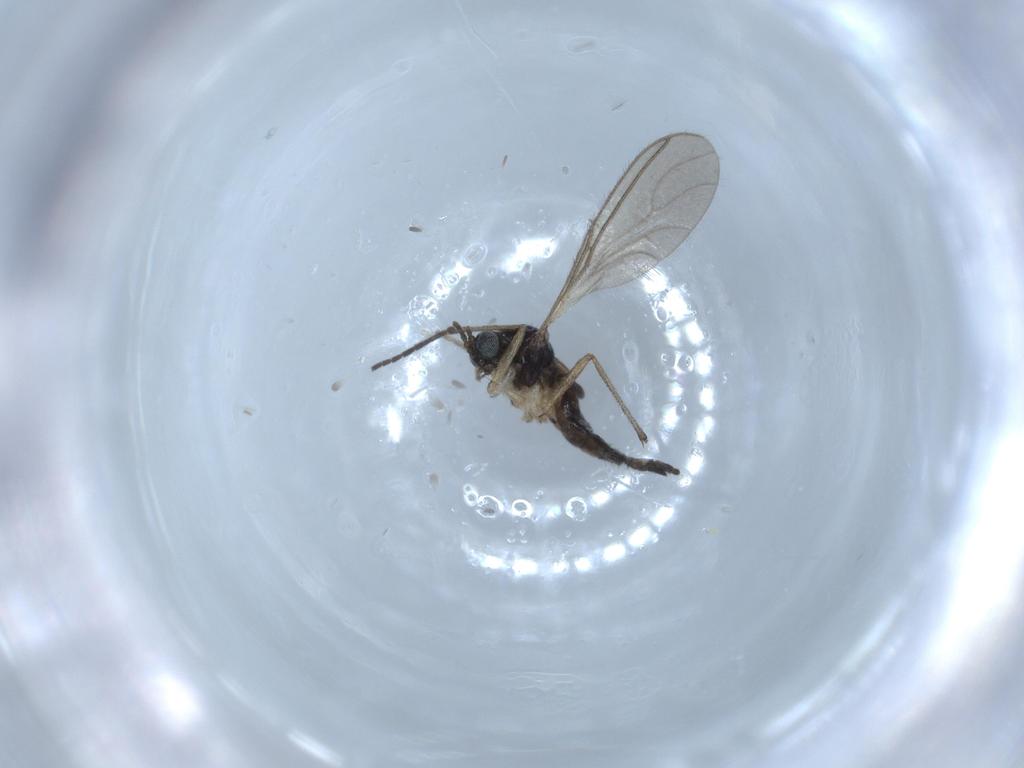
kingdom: Animalia
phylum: Arthropoda
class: Insecta
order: Diptera
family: Sciaridae
